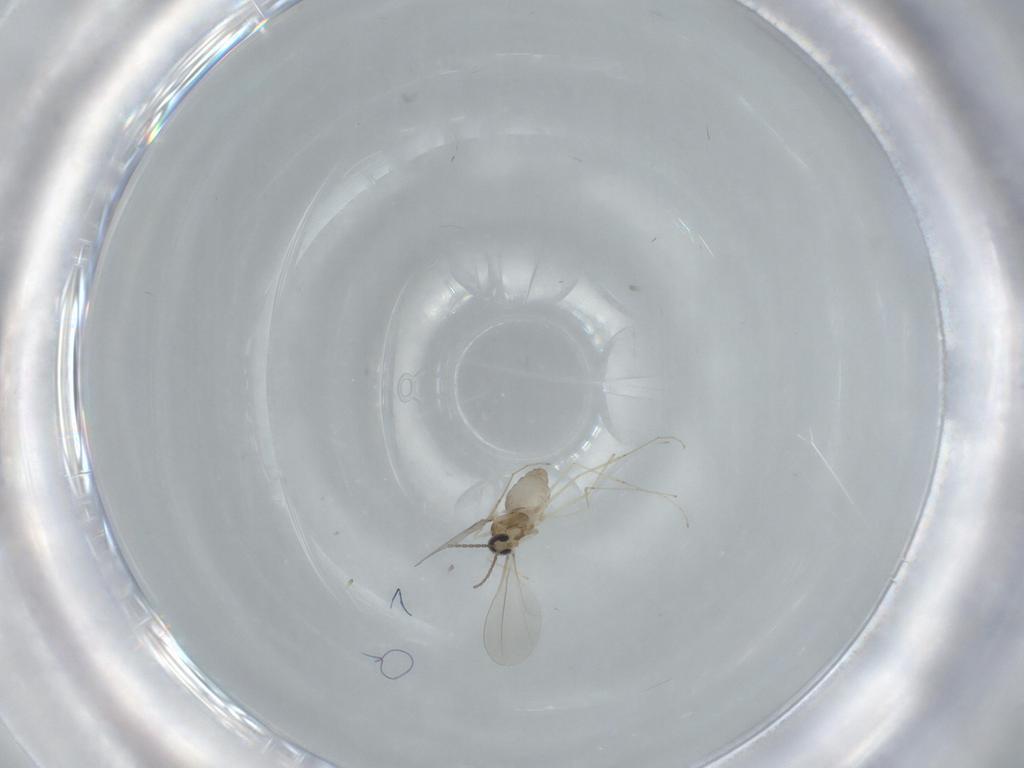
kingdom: Animalia
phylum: Arthropoda
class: Insecta
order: Diptera
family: Cecidomyiidae
